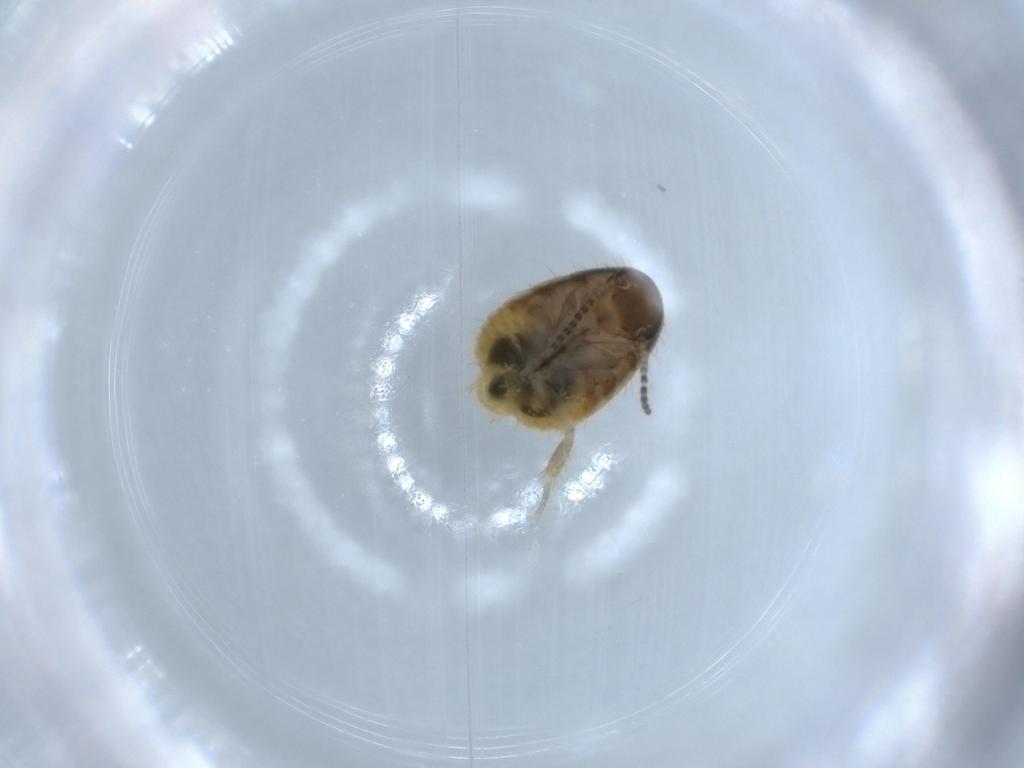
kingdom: Animalia
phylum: Arthropoda
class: Insecta
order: Blattodea
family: Blaberidae
